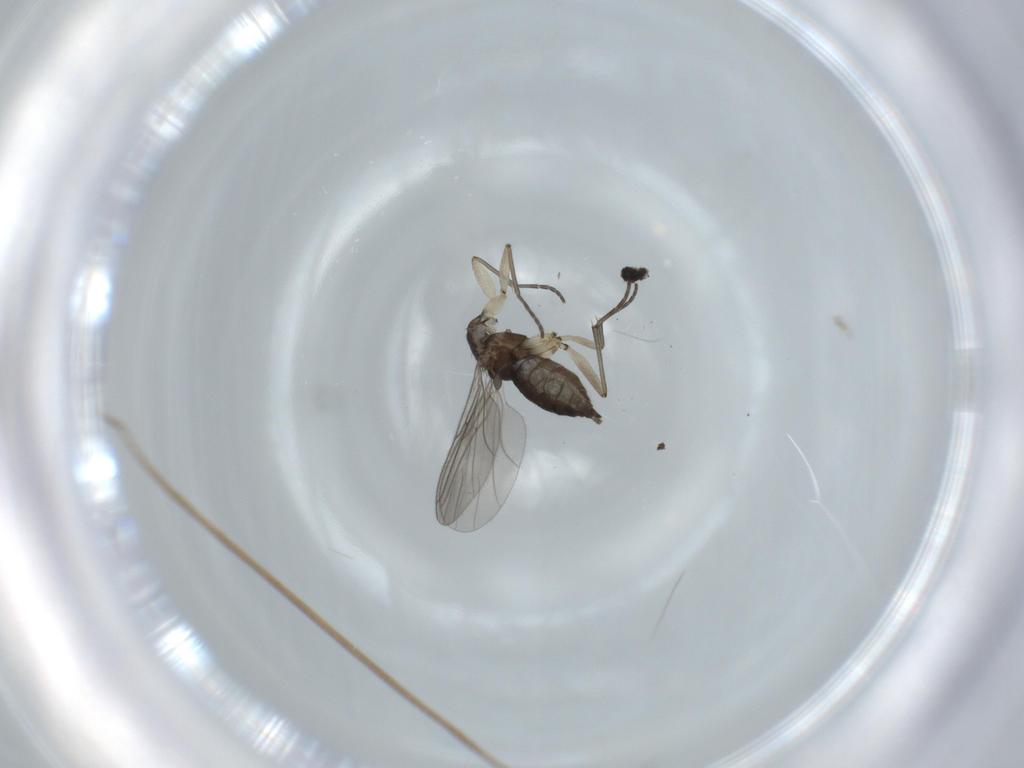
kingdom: Animalia
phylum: Arthropoda
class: Insecta
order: Diptera
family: Sciaridae
